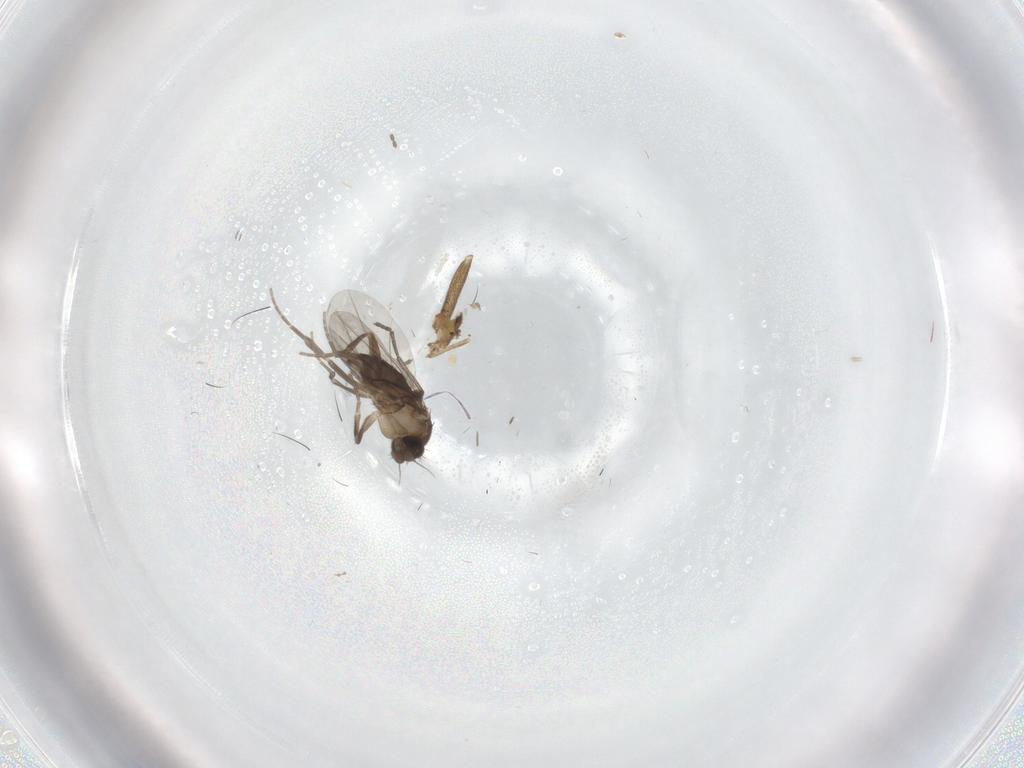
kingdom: Animalia
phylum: Arthropoda
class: Insecta
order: Diptera
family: Chironomidae
